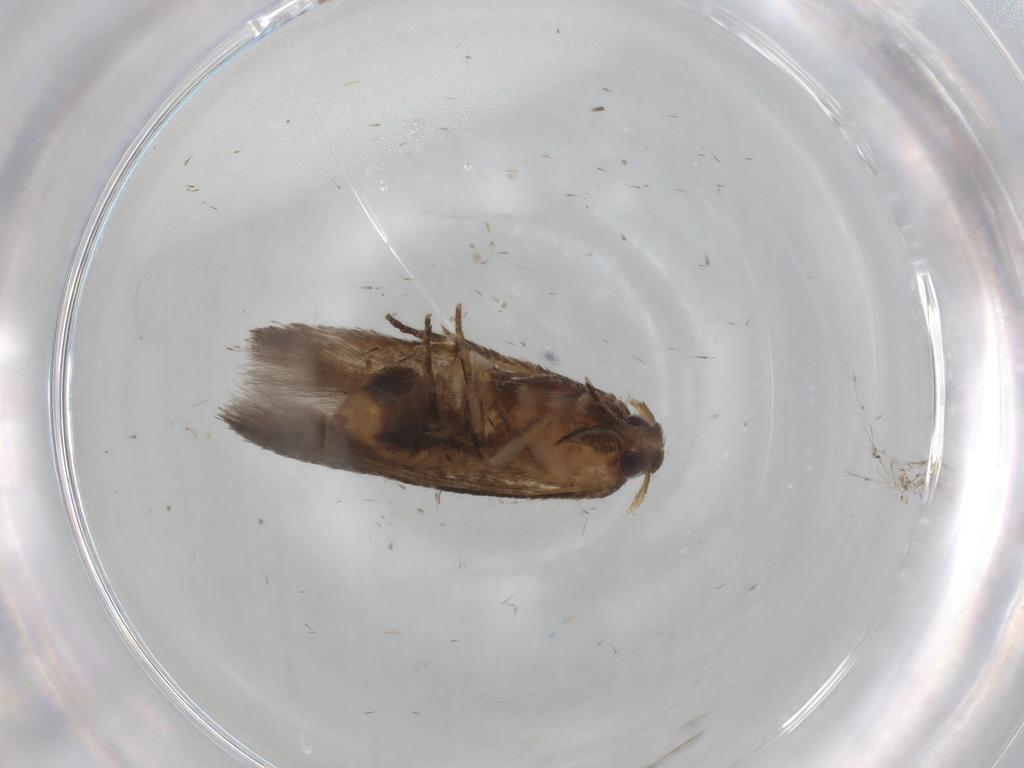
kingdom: Animalia
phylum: Arthropoda
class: Insecta
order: Lepidoptera
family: Cosmopterigidae
